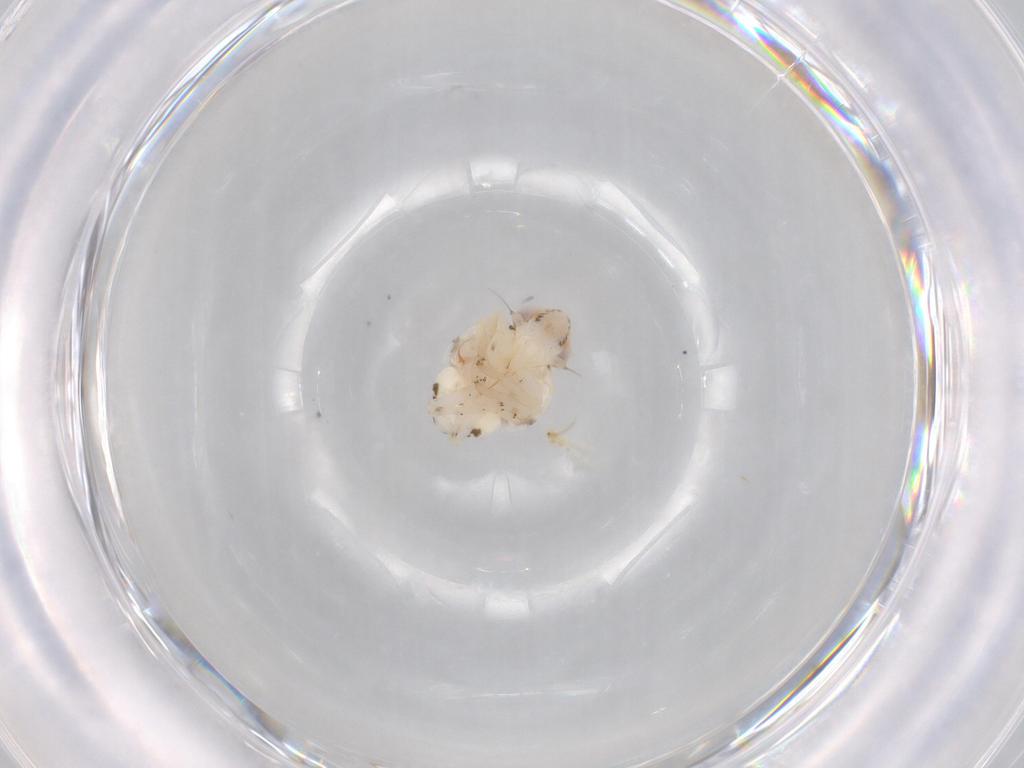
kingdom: Animalia
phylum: Arthropoda
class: Insecta
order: Hemiptera
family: Nogodinidae
